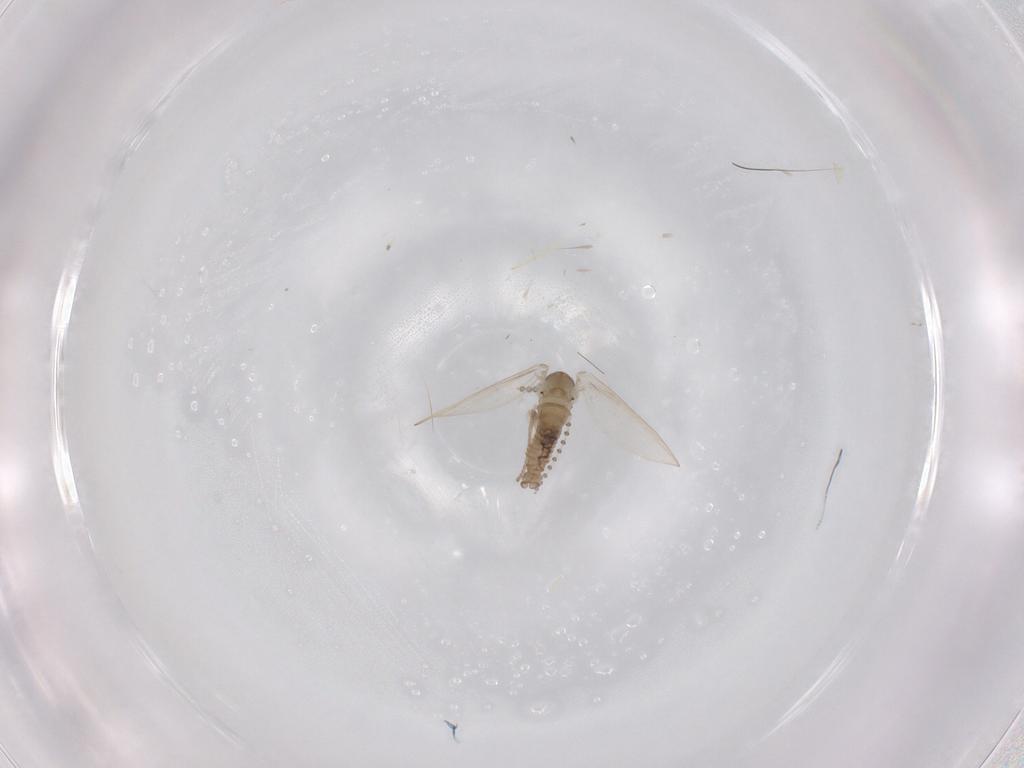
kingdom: Animalia
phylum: Arthropoda
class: Insecta
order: Diptera
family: Psychodidae
